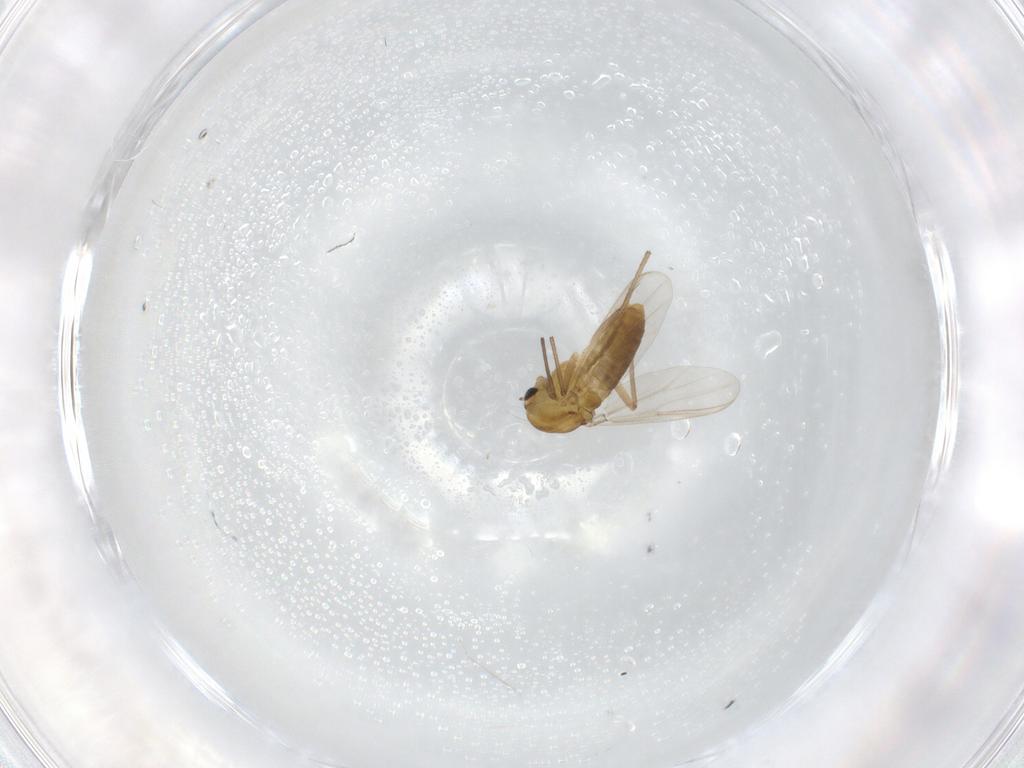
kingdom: Animalia
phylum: Arthropoda
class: Insecta
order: Diptera
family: Chironomidae
